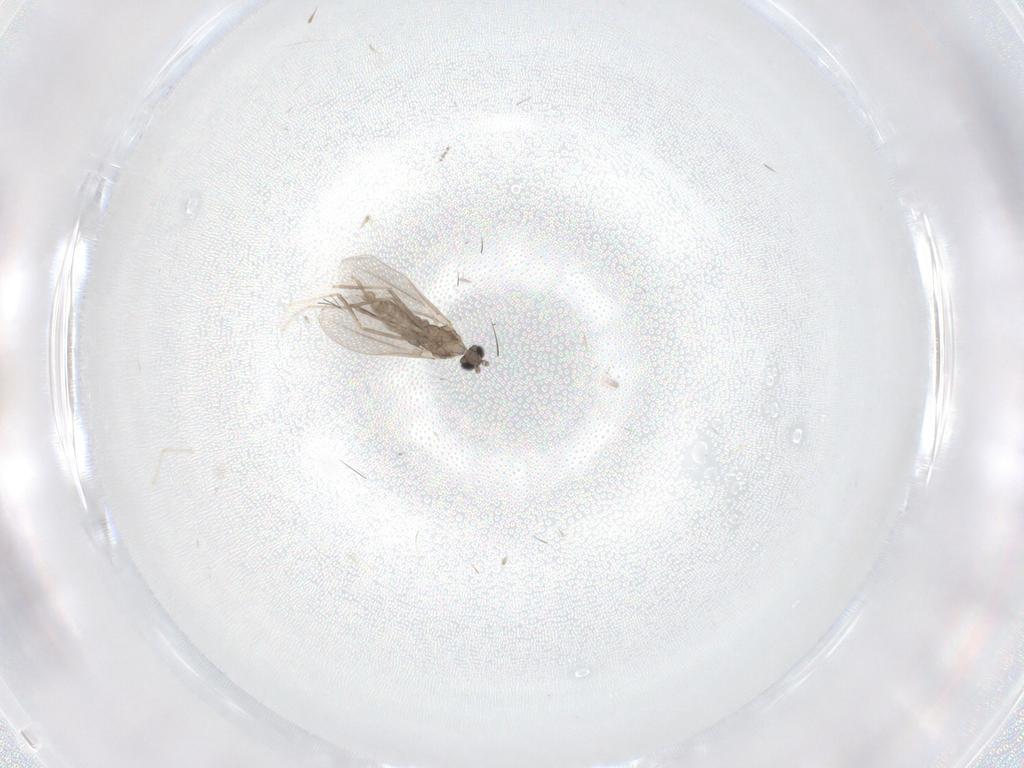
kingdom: Animalia
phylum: Arthropoda
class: Insecta
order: Diptera
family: Cecidomyiidae
